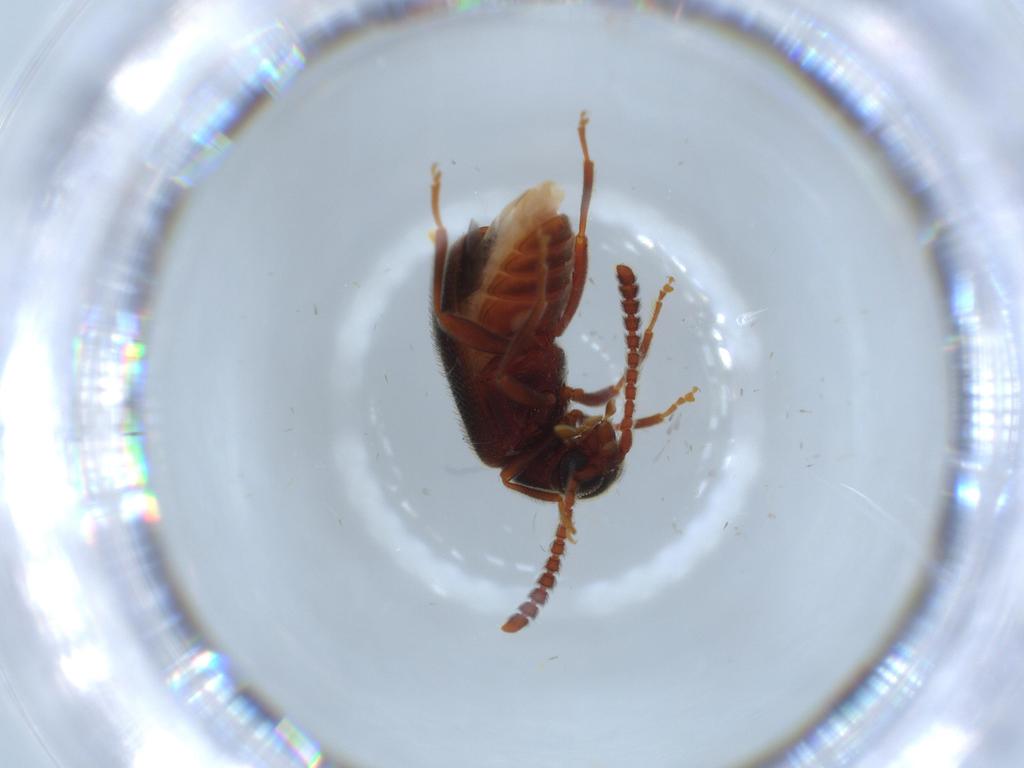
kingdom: Animalia
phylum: Arthropoda
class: Insecta
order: Coleoptera
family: Aderidae
